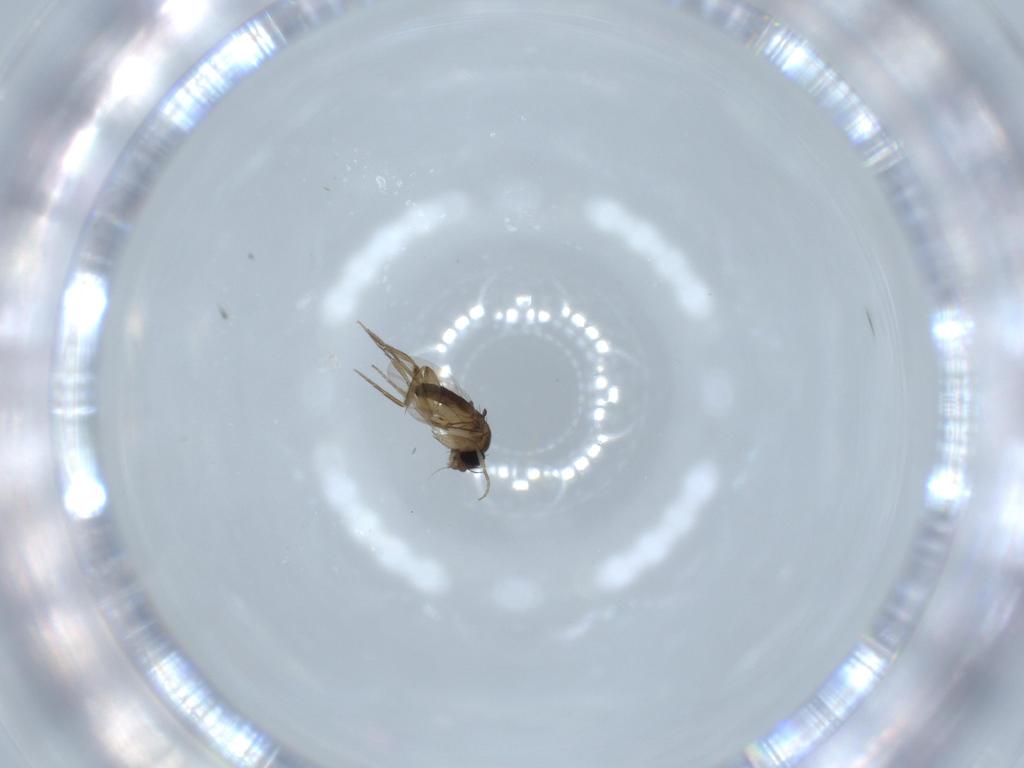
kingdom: Animalia
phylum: Arthropoda
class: Insecta
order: Diptera
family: Phoridae
